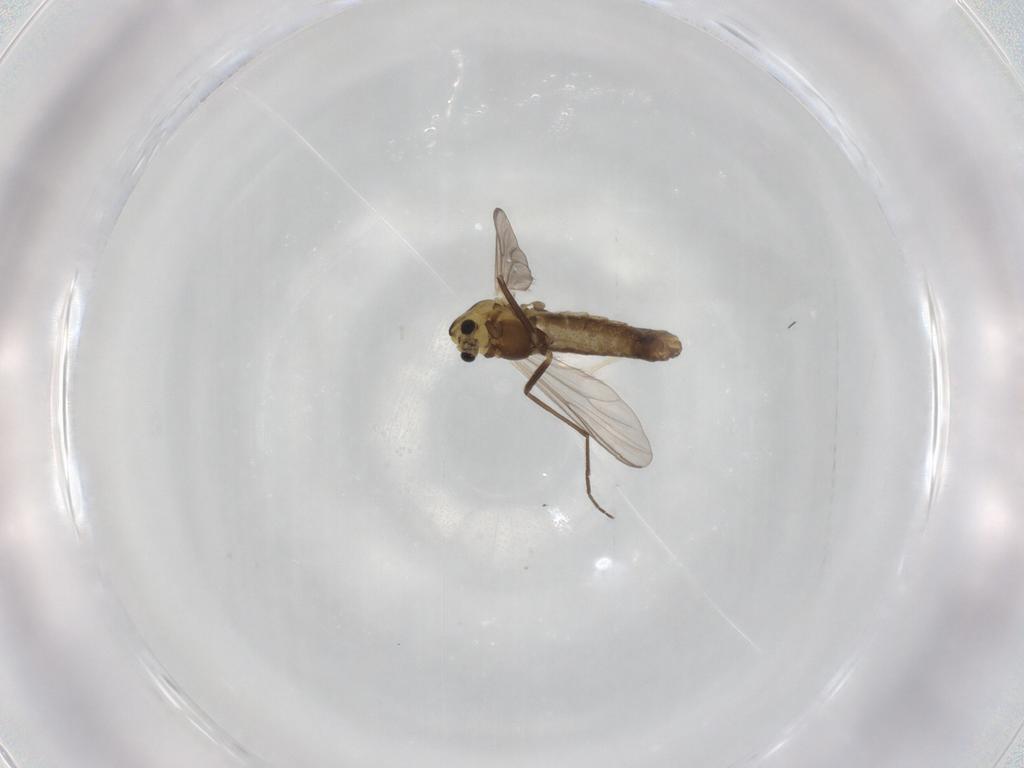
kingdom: Animalia
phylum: Arthropoda
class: Insecta
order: Diptera
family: Chironomidae
